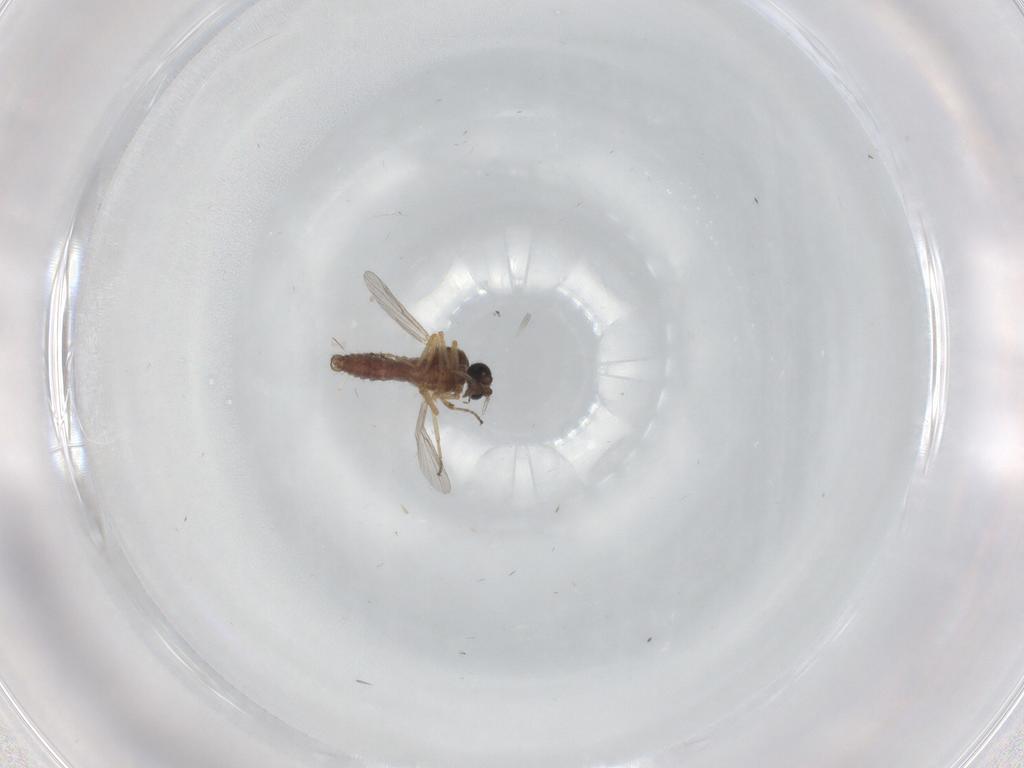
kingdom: Animalia
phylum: Arthropoda
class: Insecta
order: Diptera
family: Ceratopogonidae
